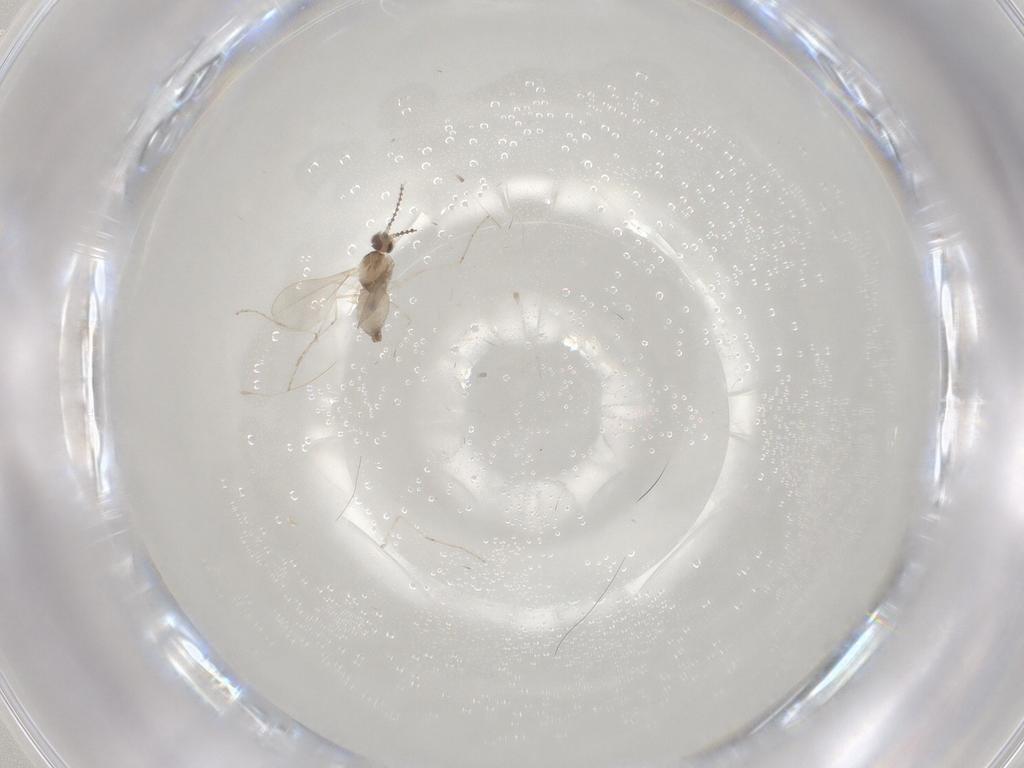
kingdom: Animalia
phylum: Arthropoda
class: Insecta
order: Diptera
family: Cecidomyiidae
